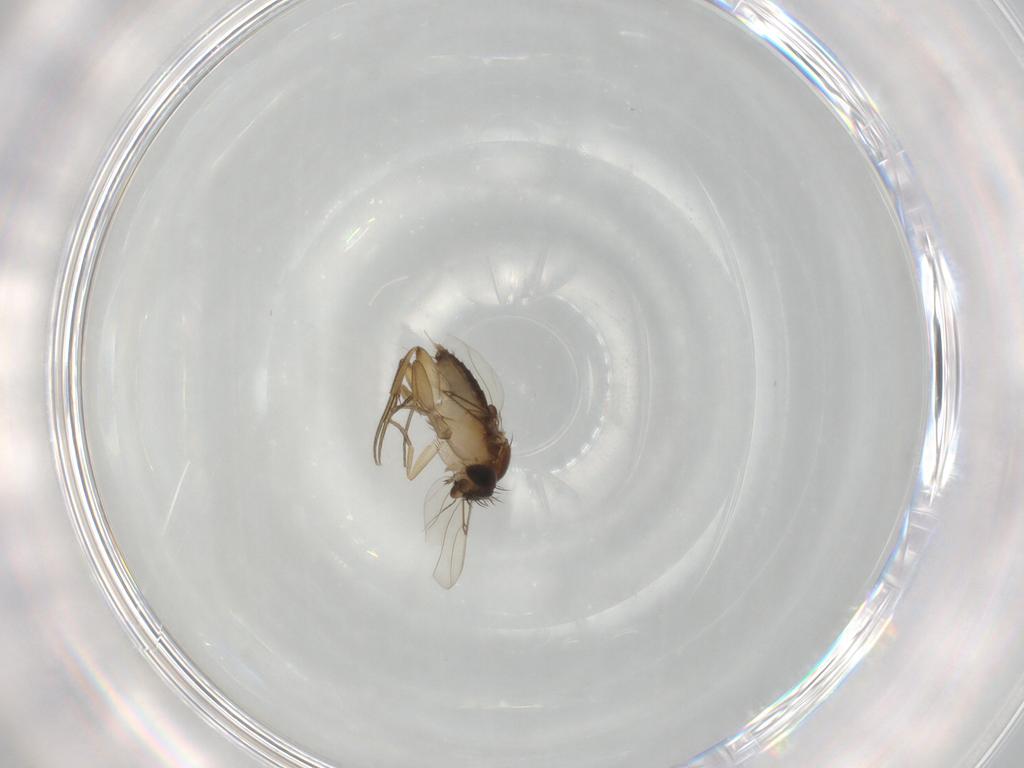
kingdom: Animalia
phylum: Arthropoda
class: Insecta
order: Diptera
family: Phoridae
